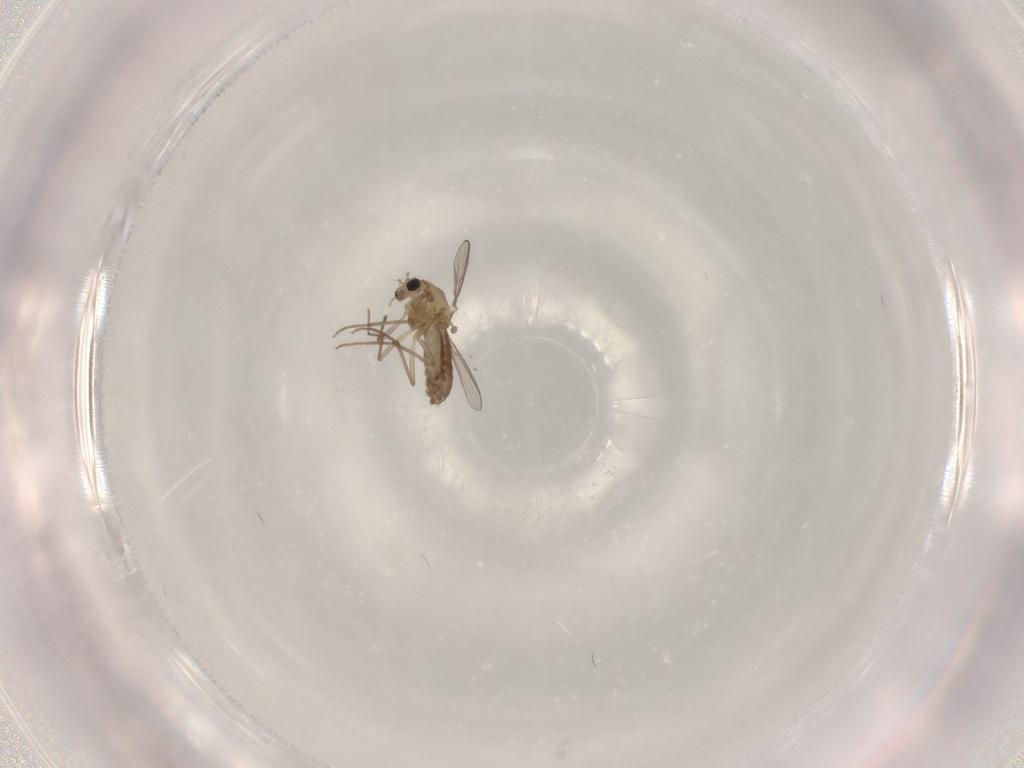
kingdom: Animalia
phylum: Arthropoda
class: Insecta
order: Diptera
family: Chironomidae
